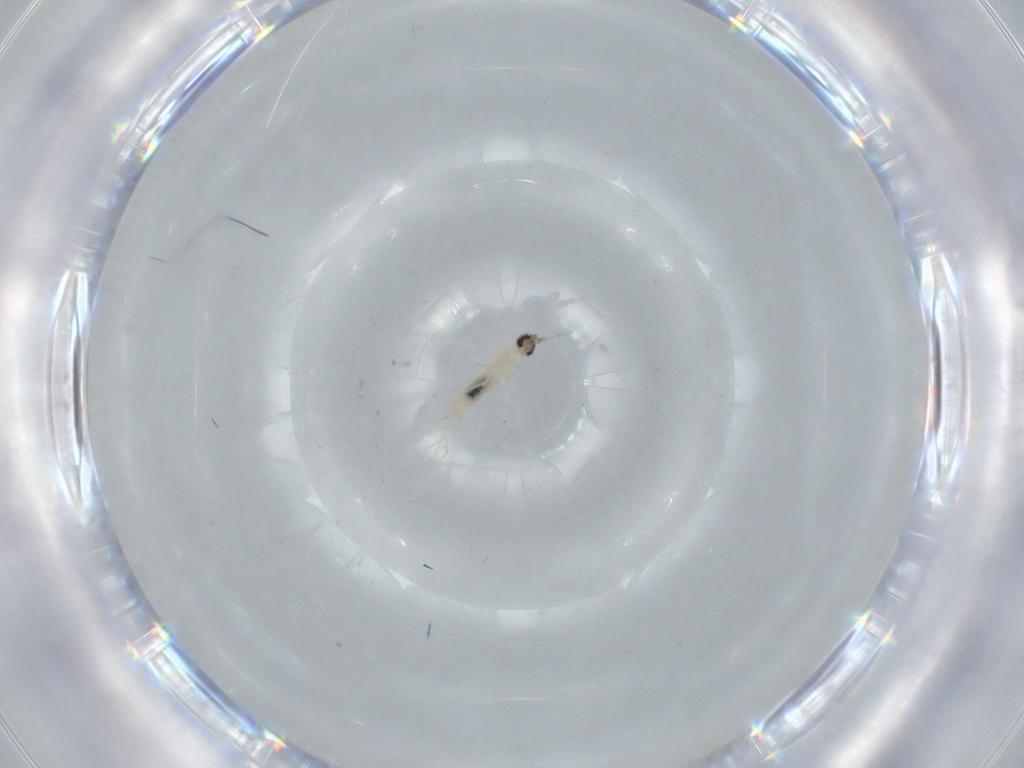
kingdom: Animalia
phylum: Arthropoda
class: Insecta
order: Diptera
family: Cecidomyiidae
